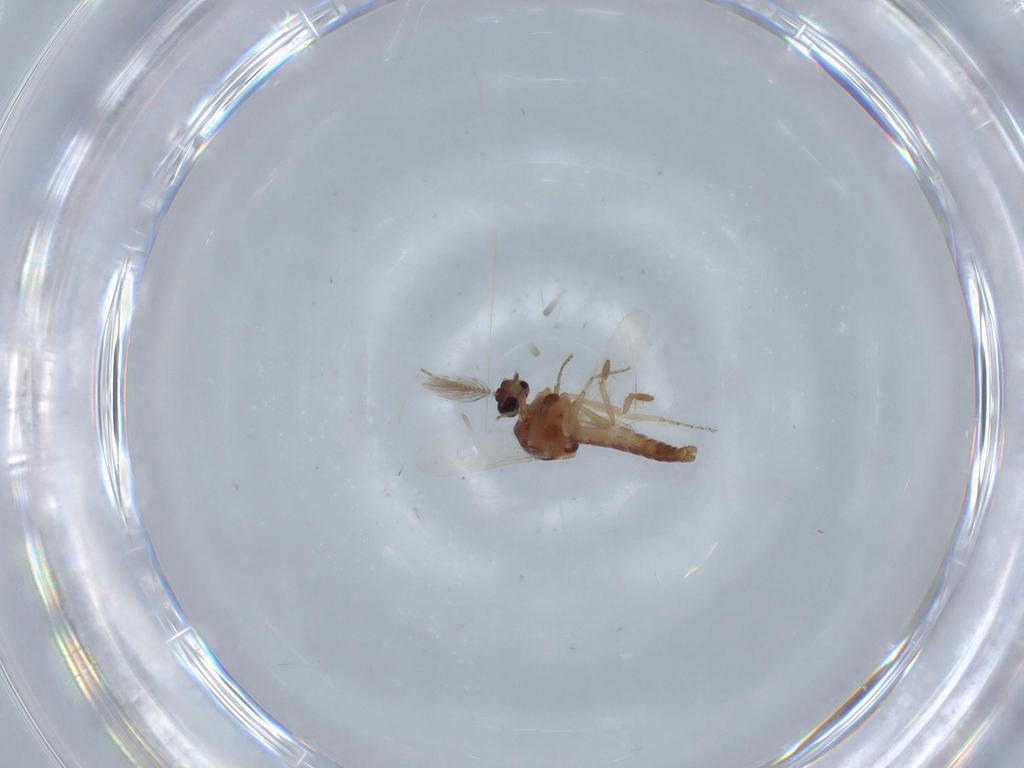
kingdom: Animalia
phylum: Arthropoda
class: Insecta
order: Diptera
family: Ceratopogonidae
